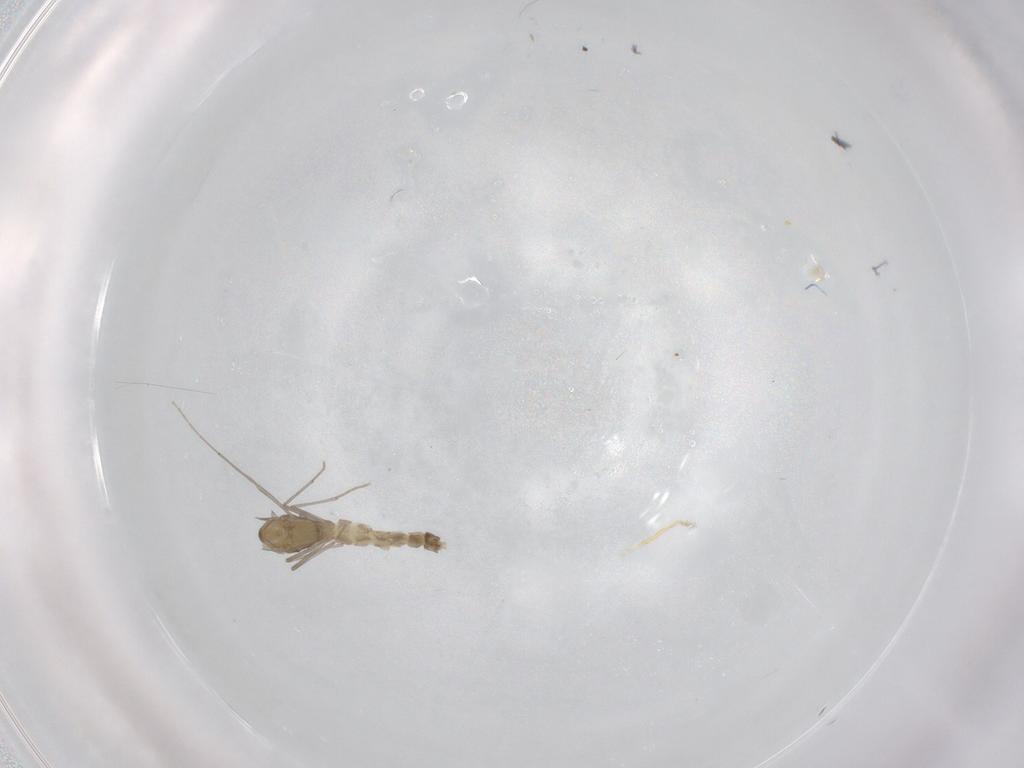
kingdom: Animalia
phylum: Arthropoda
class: Insecta
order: Diptera
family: Chironomidae
